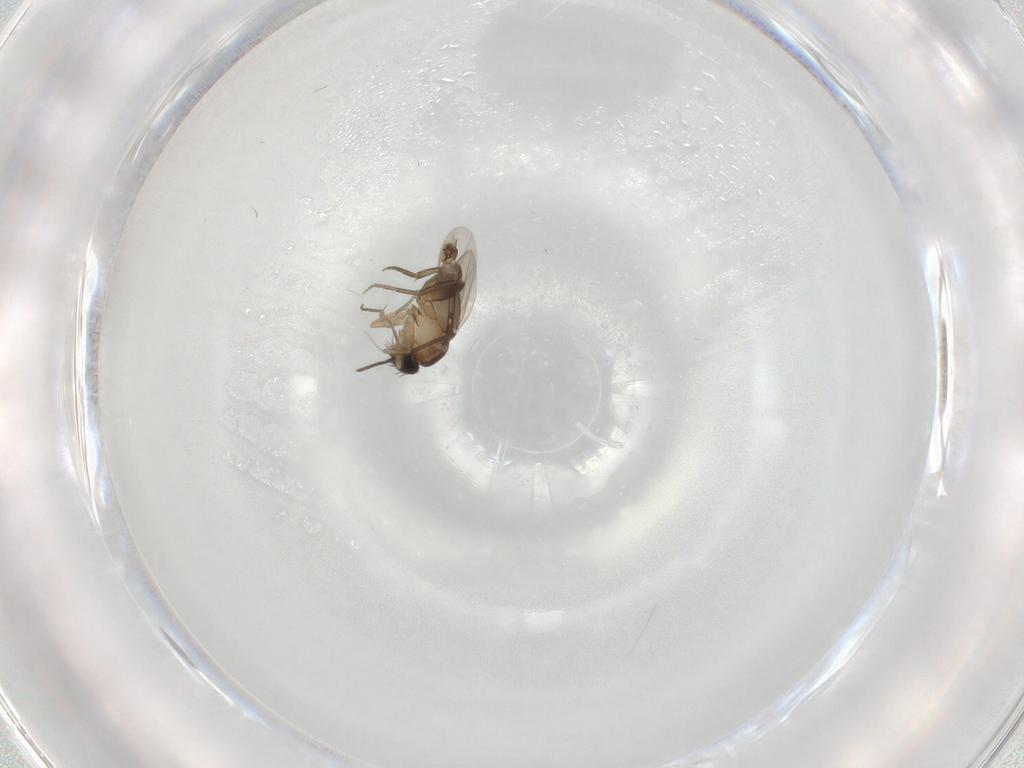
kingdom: Animalia
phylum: Arthropoda
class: Insecta
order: Diptera
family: Phoridae
